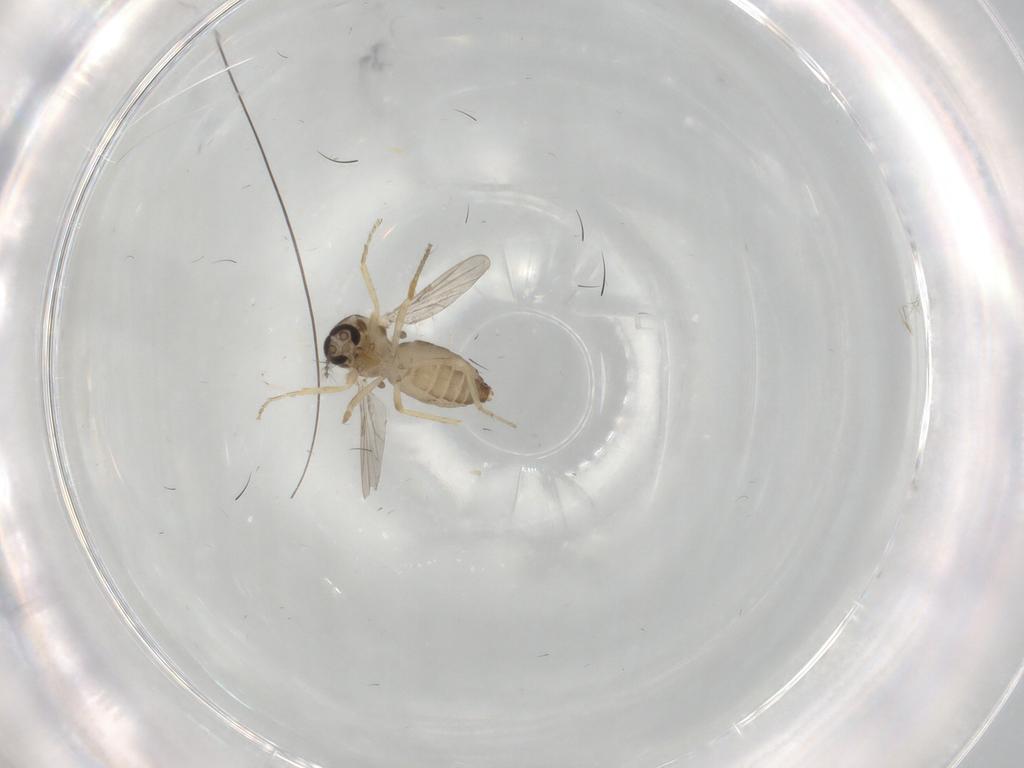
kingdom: Animalia
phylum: Arthropoda
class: Insecta
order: Diptera
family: Ceratopogonidae
